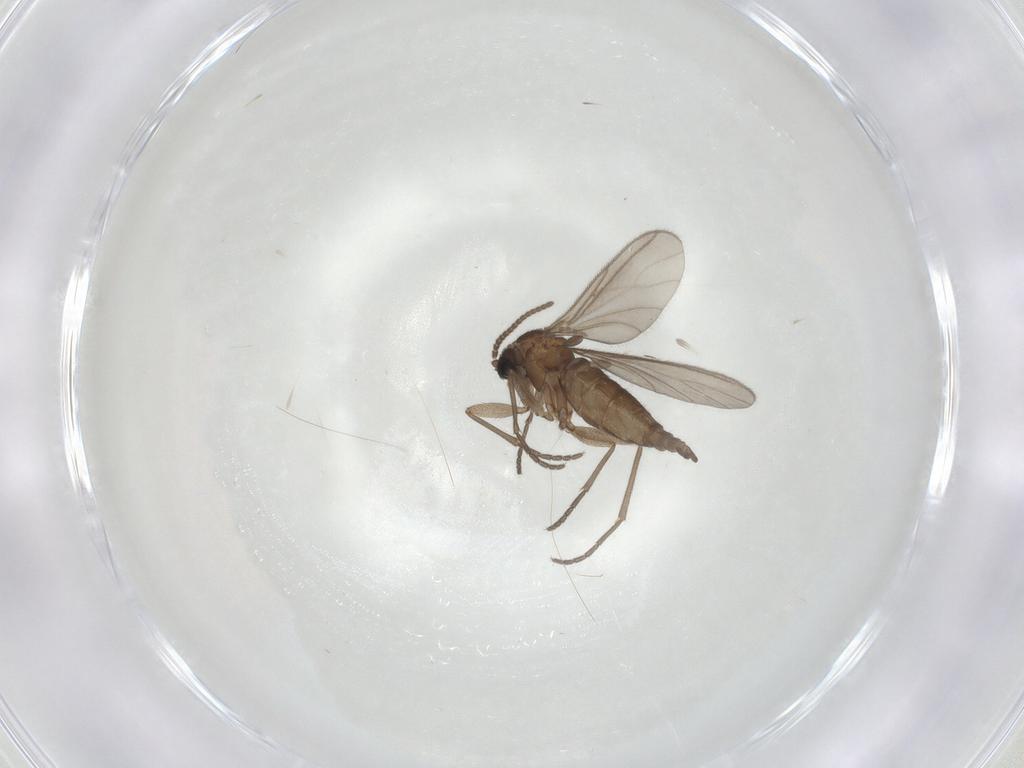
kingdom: Animalia
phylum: Arthropoda
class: Insecta
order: Diptera
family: Sciaridae
